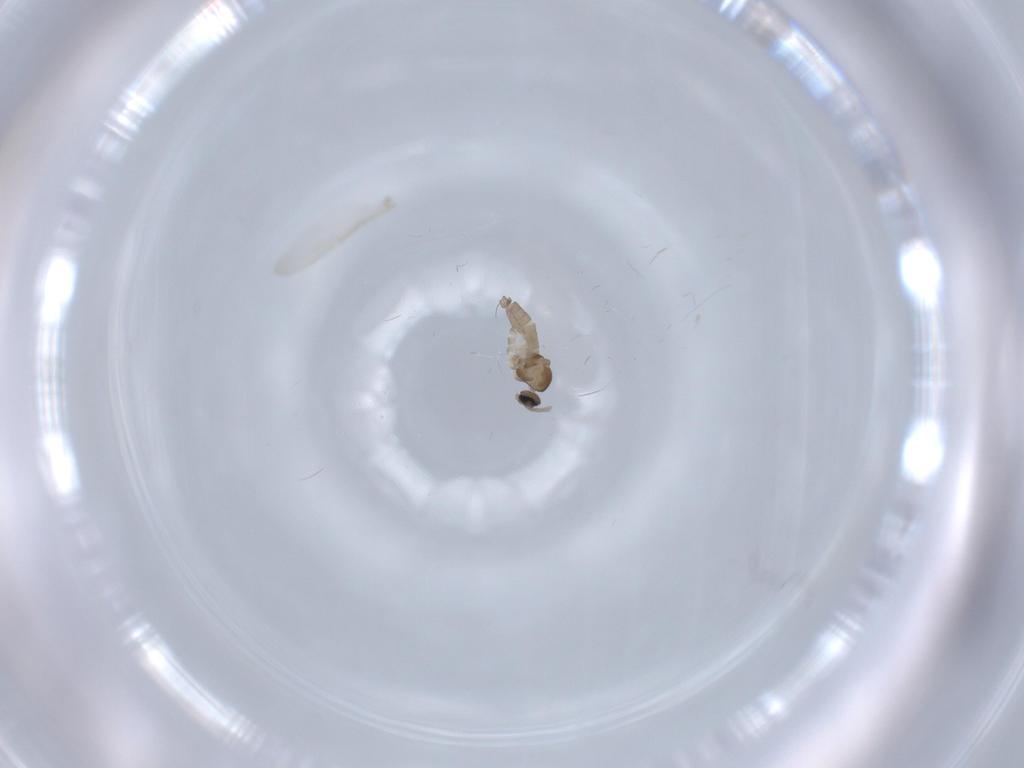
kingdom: Animalia
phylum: Arthropoda
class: Insecta
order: Diptera
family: Cecidomyiidae
